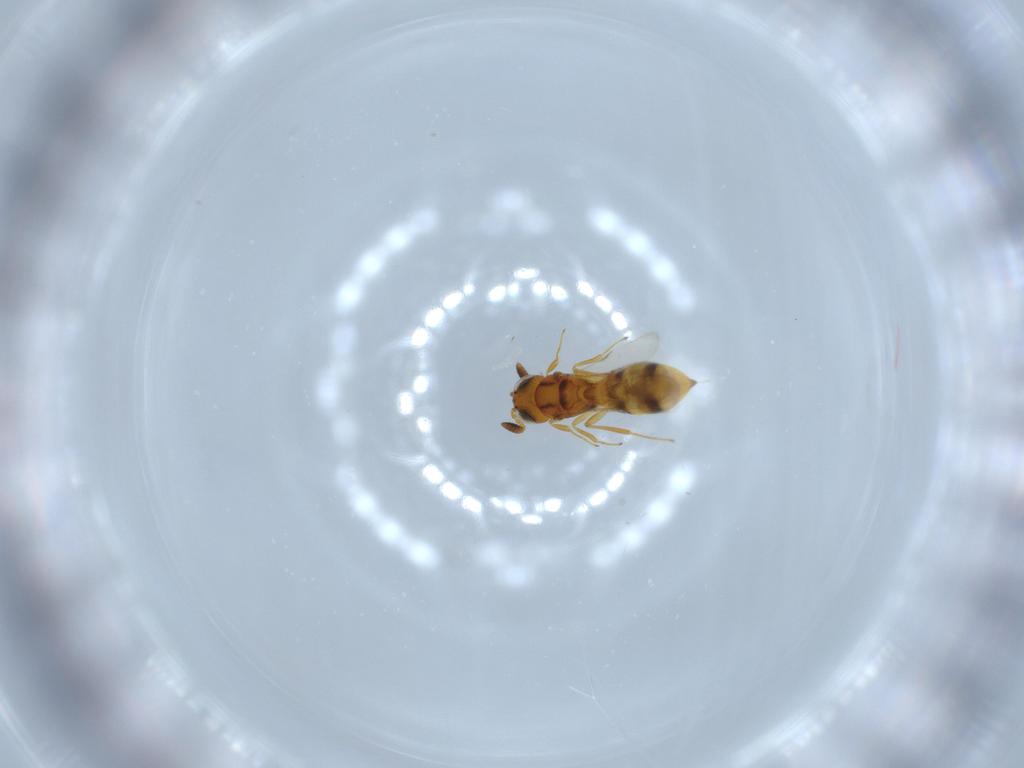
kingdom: Animalia
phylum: Arthropoda
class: Insecta
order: Hymenoptera
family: Scelionidae
